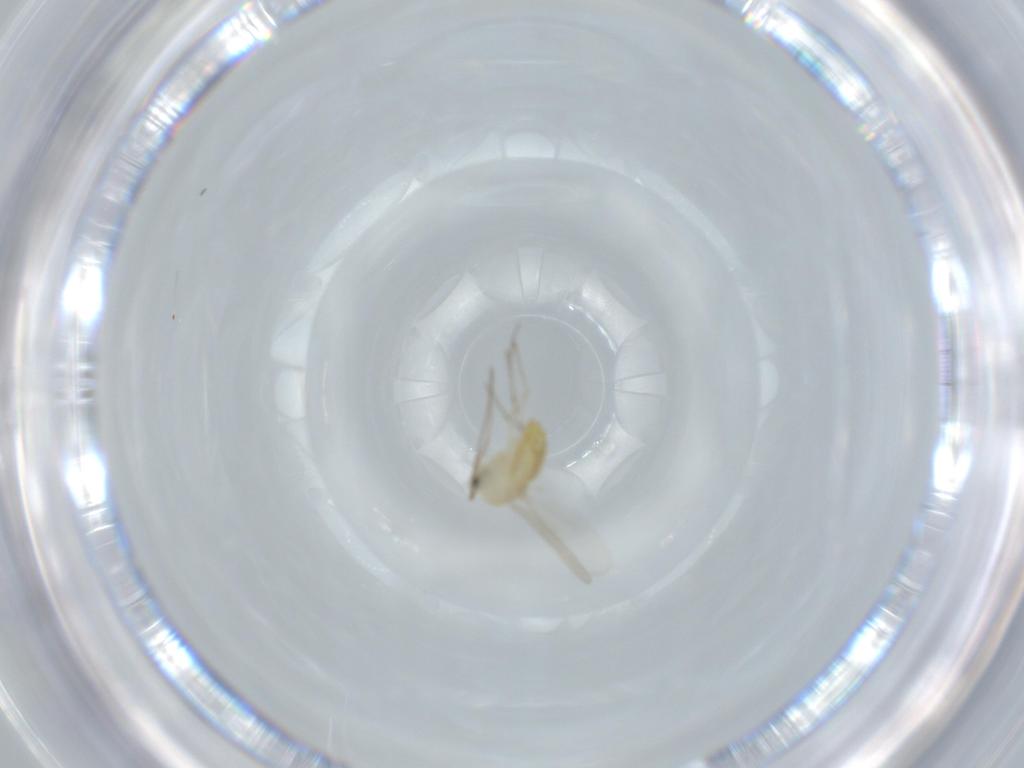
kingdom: Animalia
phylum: Arthropoda
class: Insecta
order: Diptera
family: Chironomidae
